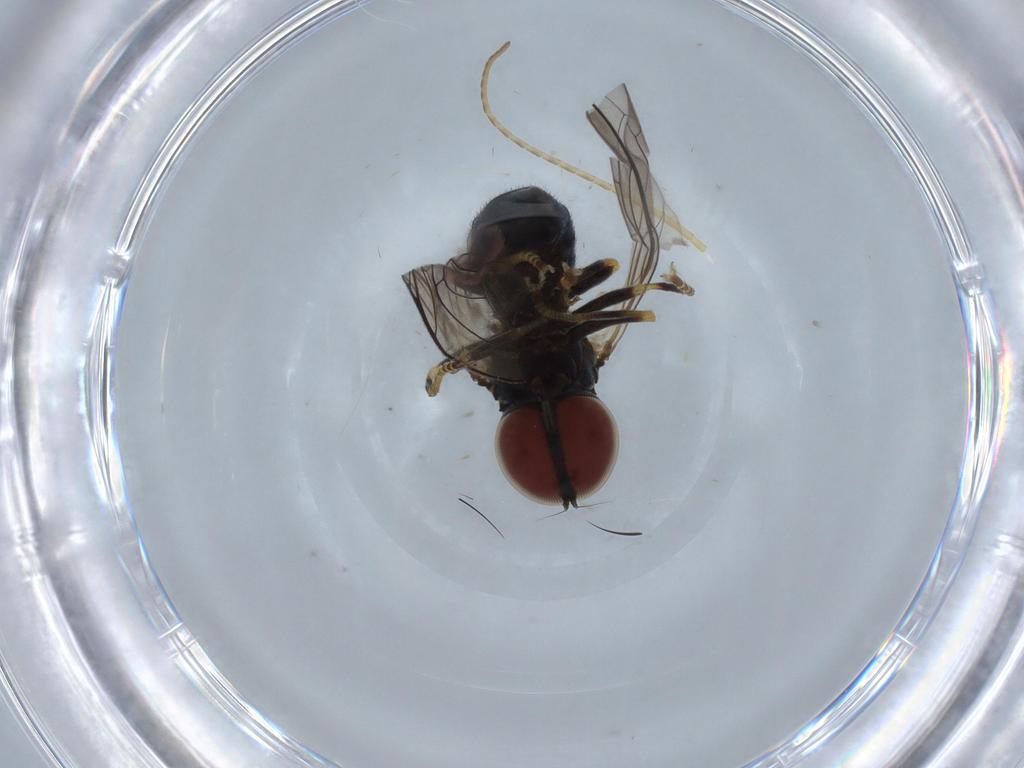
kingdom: Animalia
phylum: Arthropoda
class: Insecta
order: Diptera
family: Pipunculidae
